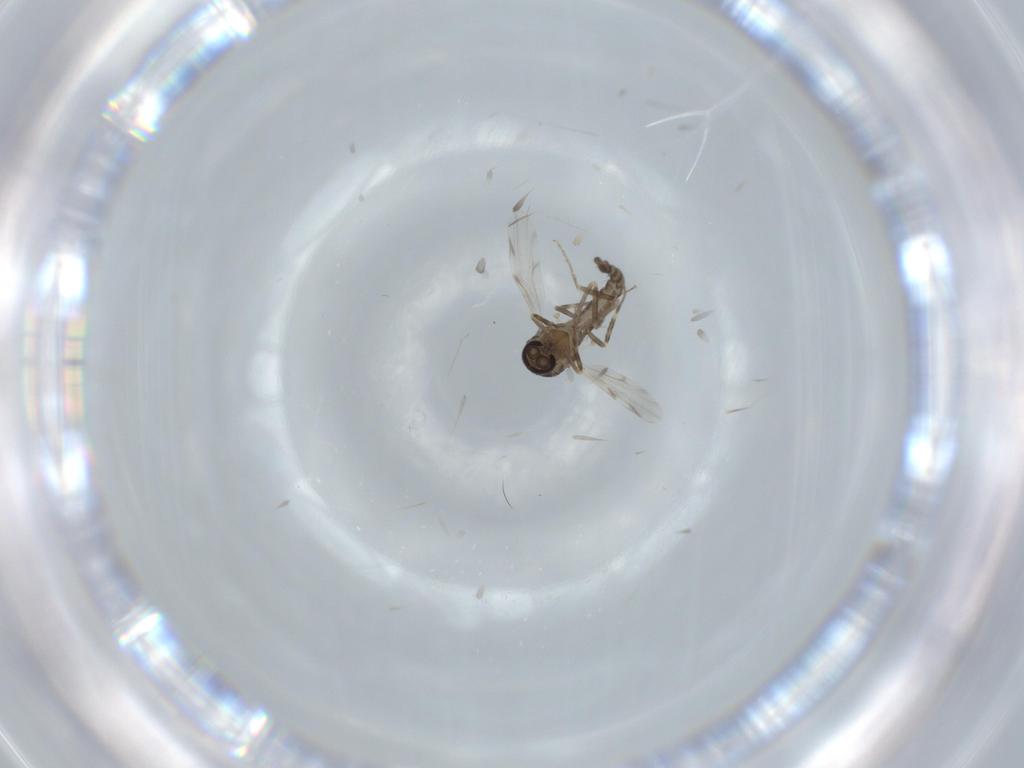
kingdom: Animalia
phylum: Arthropoda
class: Insecta
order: Diptera
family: Ceratopogonidae
